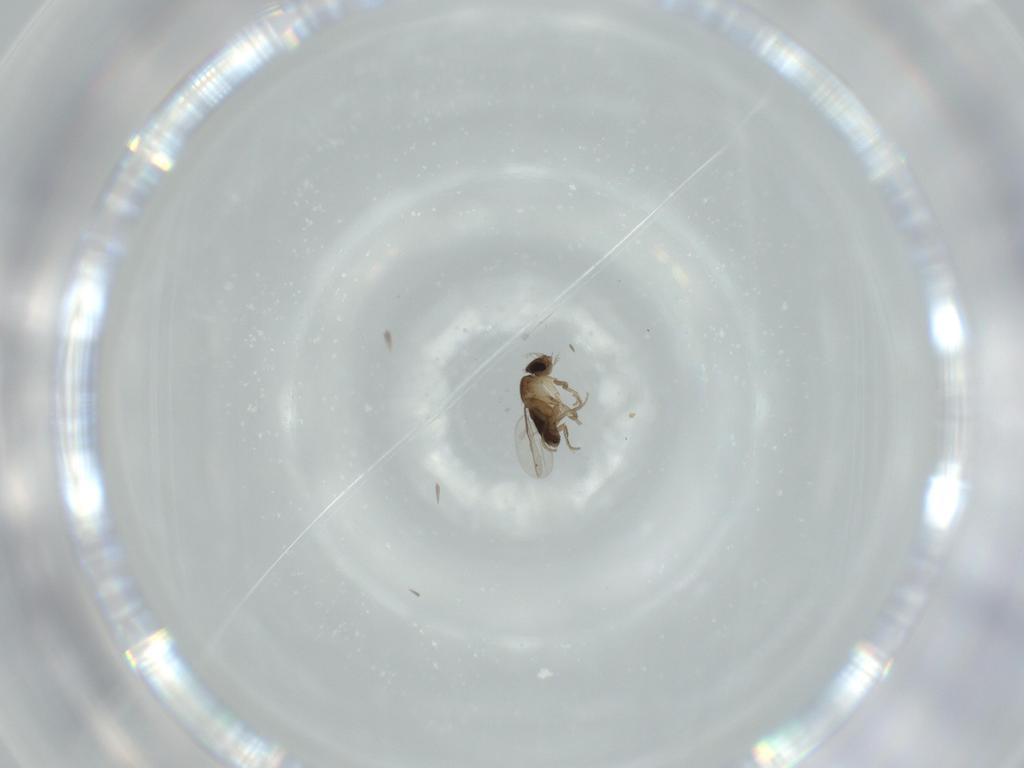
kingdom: Animalia
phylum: Arthropoda
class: Insecta
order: Diptera
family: Phoridae
